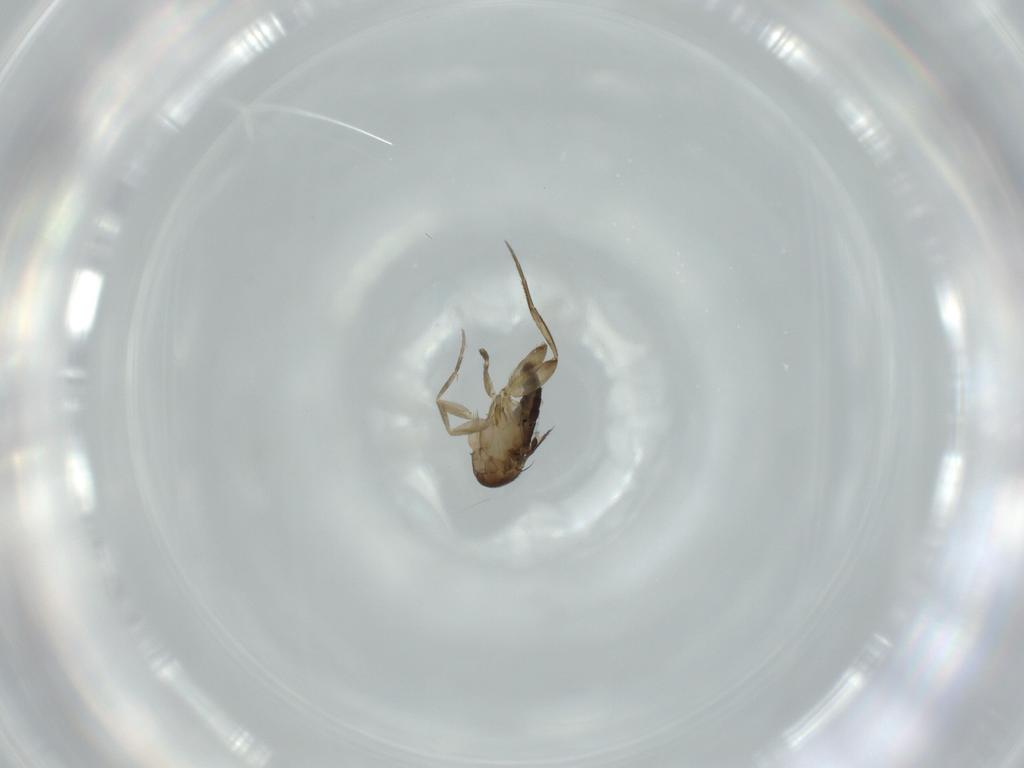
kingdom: Animalia
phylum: Arthropoda
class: Insecta
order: Diptera
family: Phoridae
